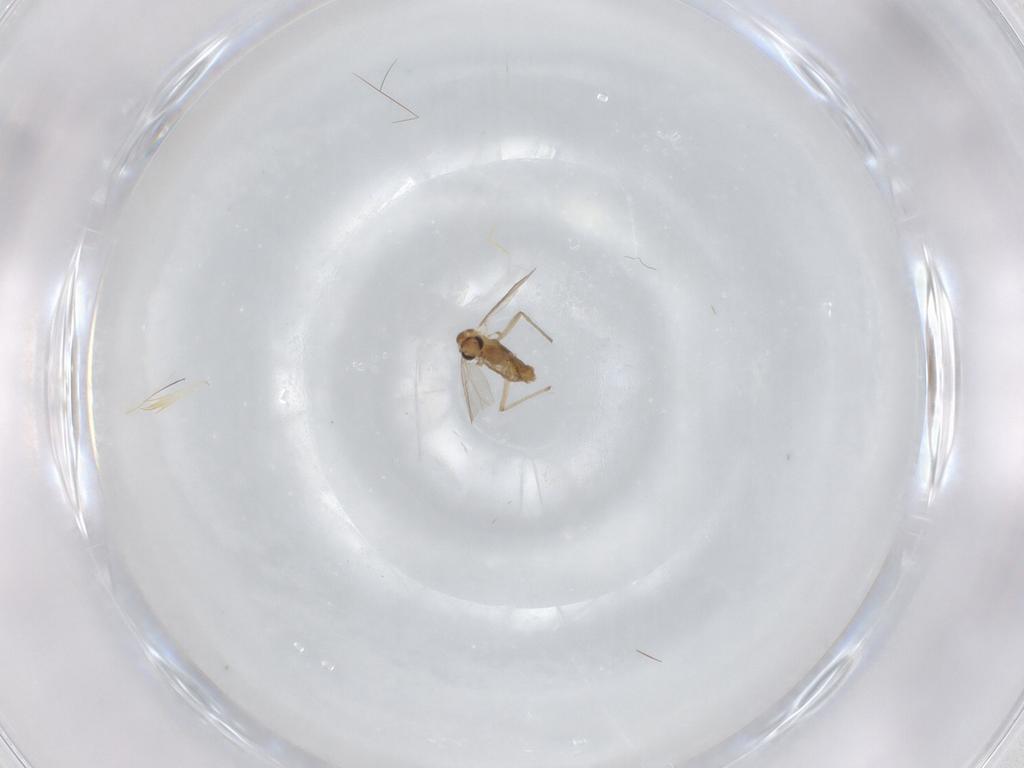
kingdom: Animalia
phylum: Arthropoda
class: Insecta
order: Diptera
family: Chironomidae
